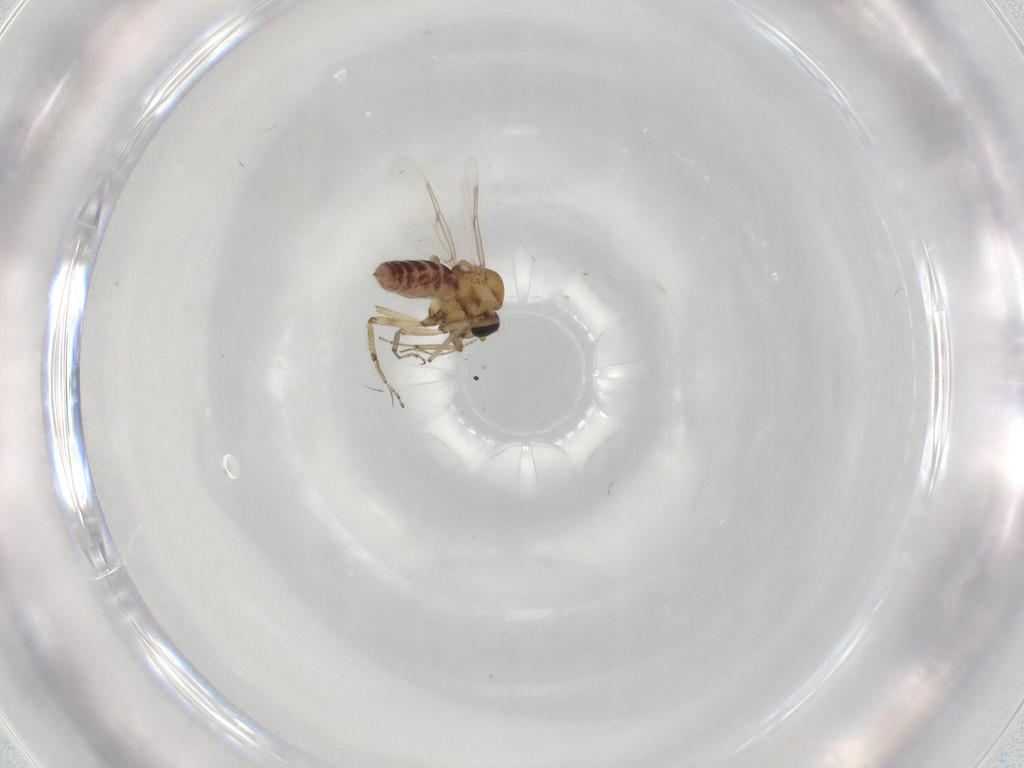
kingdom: Animalia
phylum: Arthropoda
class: Insecta
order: Diptera
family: Ceratopogonidae
